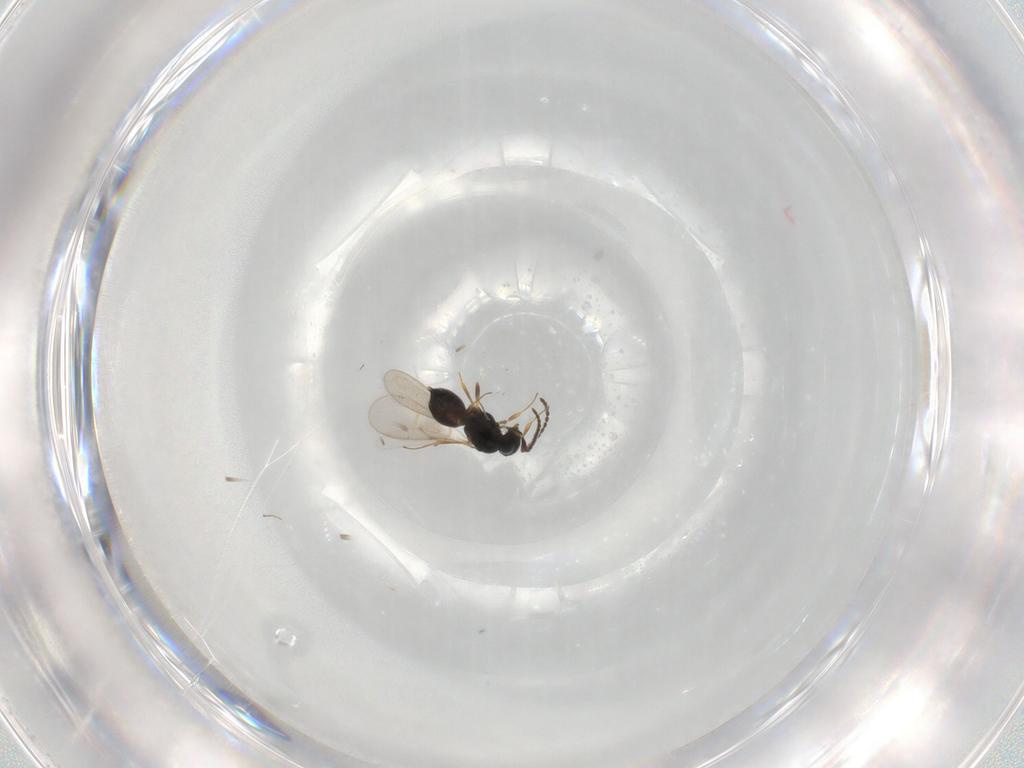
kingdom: Animalia
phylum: Arthropoda
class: Insecta
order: Hymenoptera
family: Scelionidae
